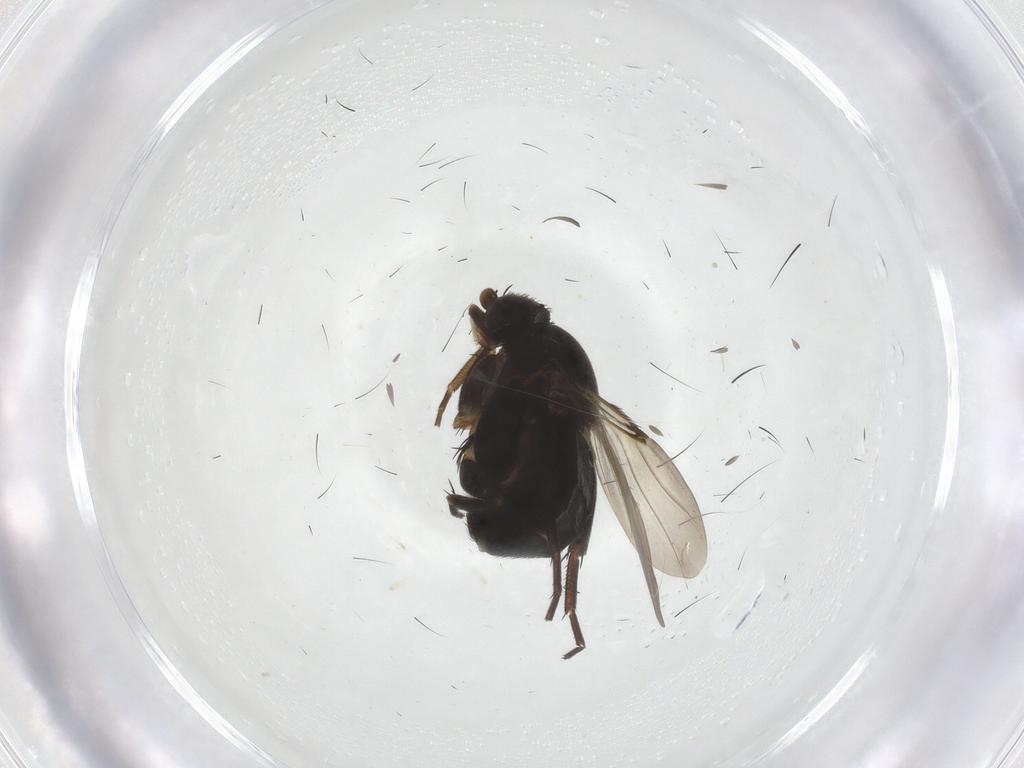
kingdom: Animalia
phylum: Arthropoda
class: Insecta
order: Diptera
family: Phoridae
